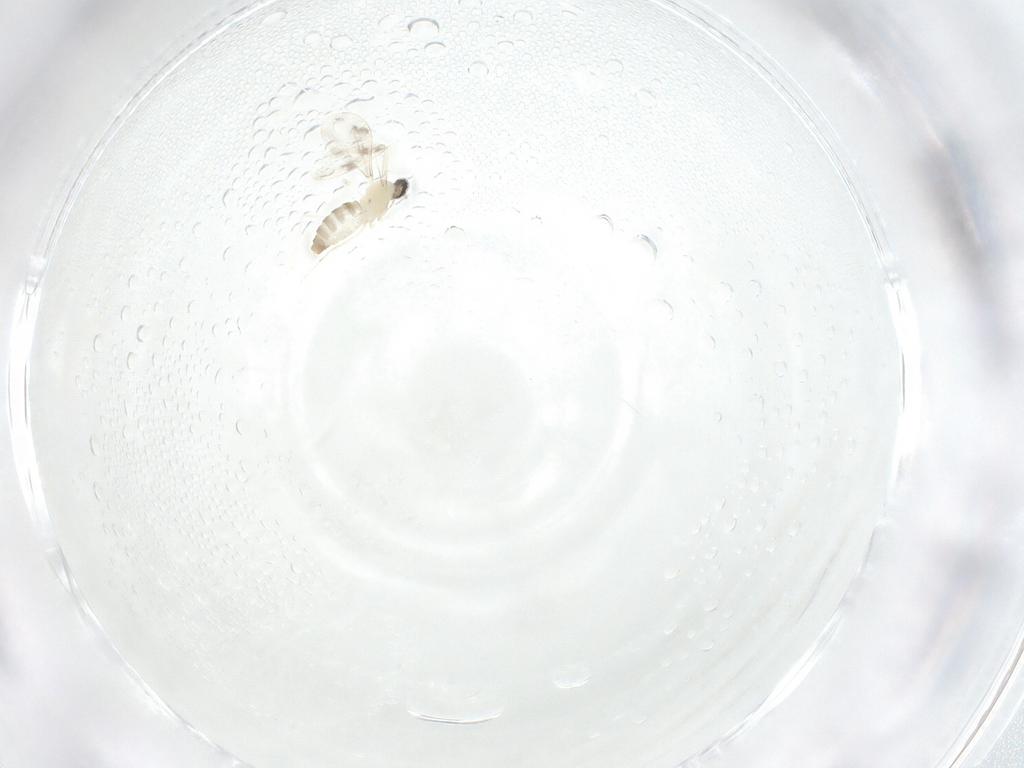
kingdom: Animalia
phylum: Arthropoda
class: Insecta
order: Diptera
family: Cecidomyiidae
